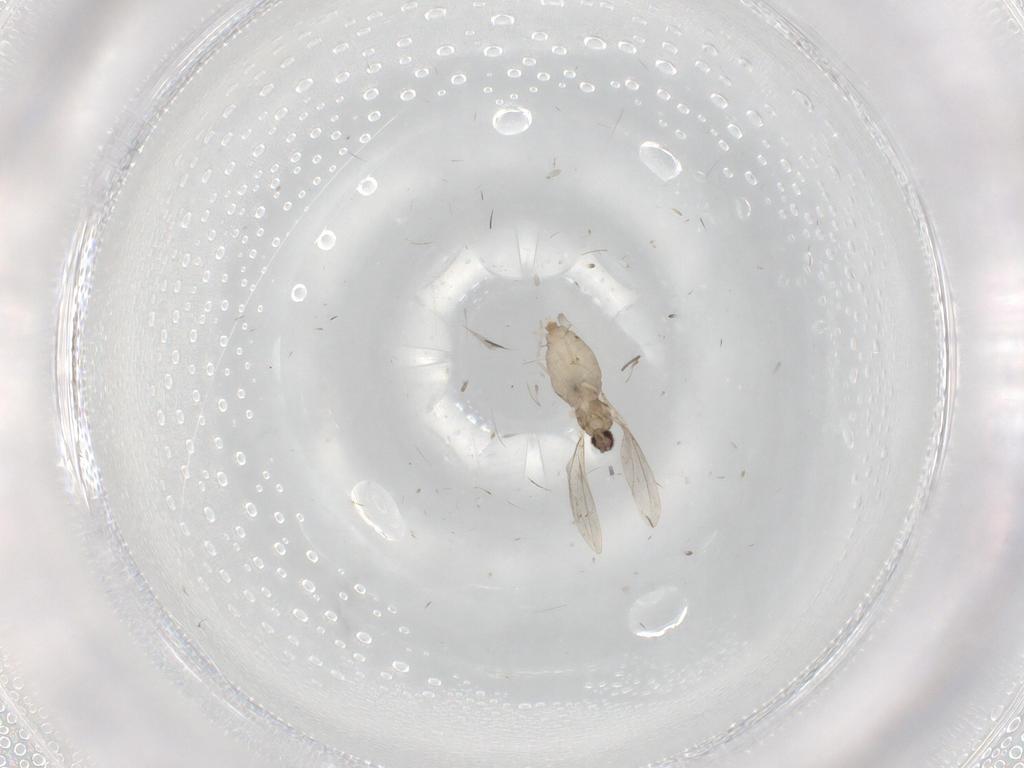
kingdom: Animalia
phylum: Arthropoda
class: Insecta
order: Diptera
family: Cecidomyiidae
